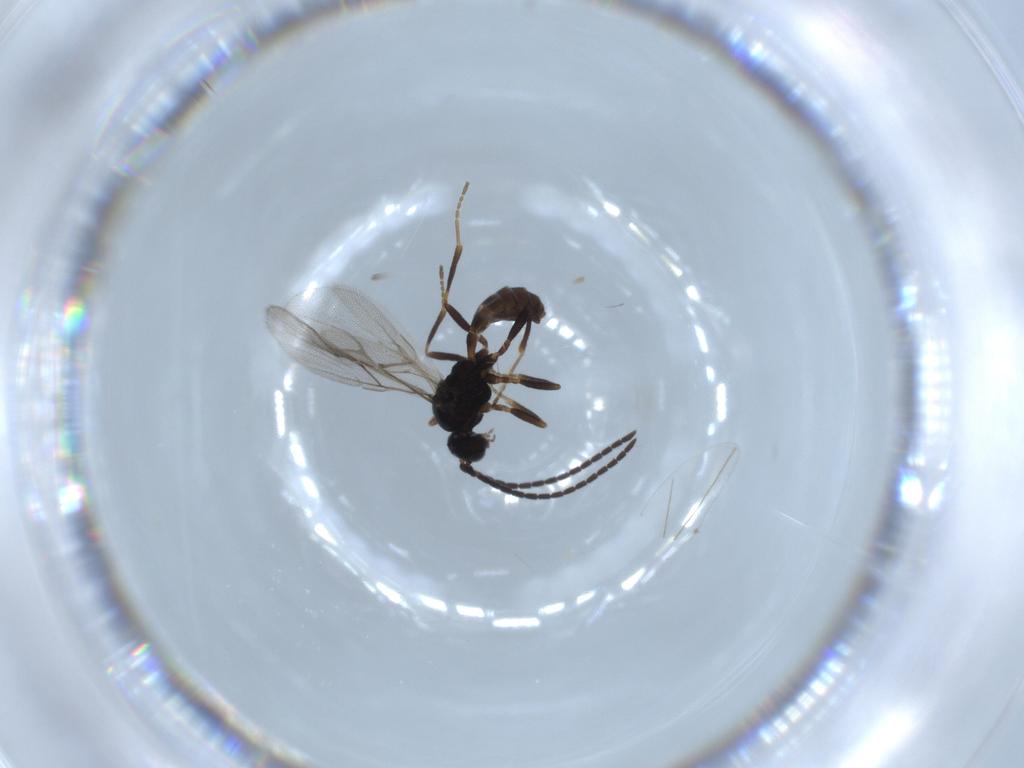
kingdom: Animalia
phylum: Arthropoda
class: Insecta
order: Hymenoptera
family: Braconidae
